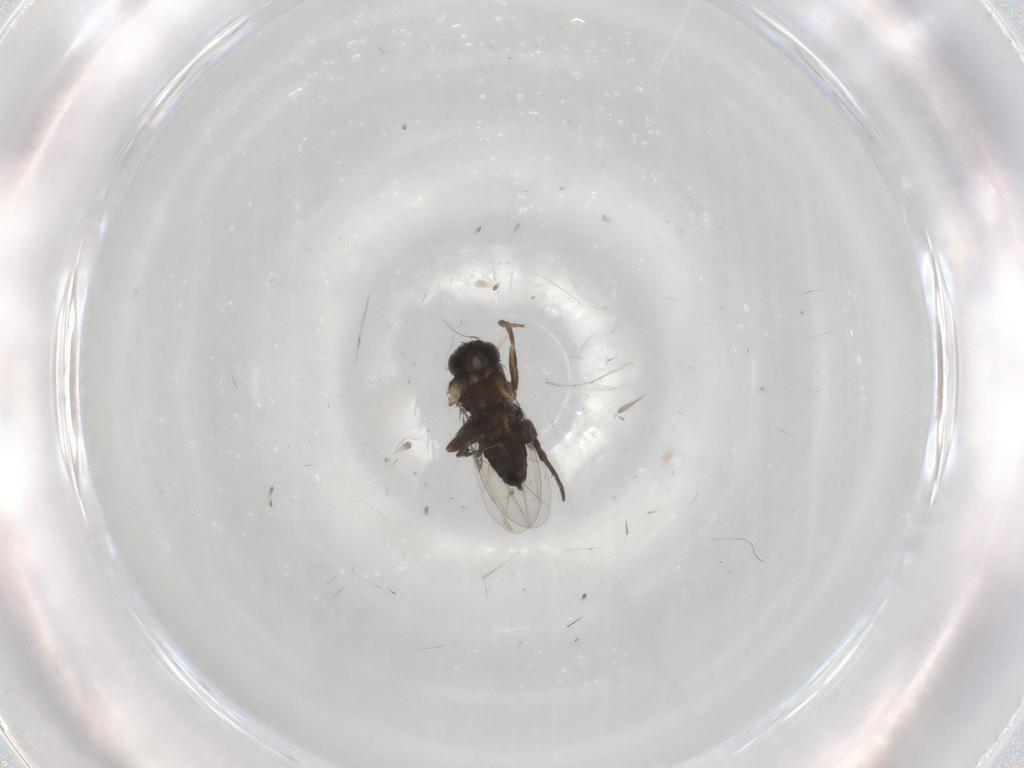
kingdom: Animalia
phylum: Arthropoda
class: Insecta
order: Diptera
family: Phoridae
